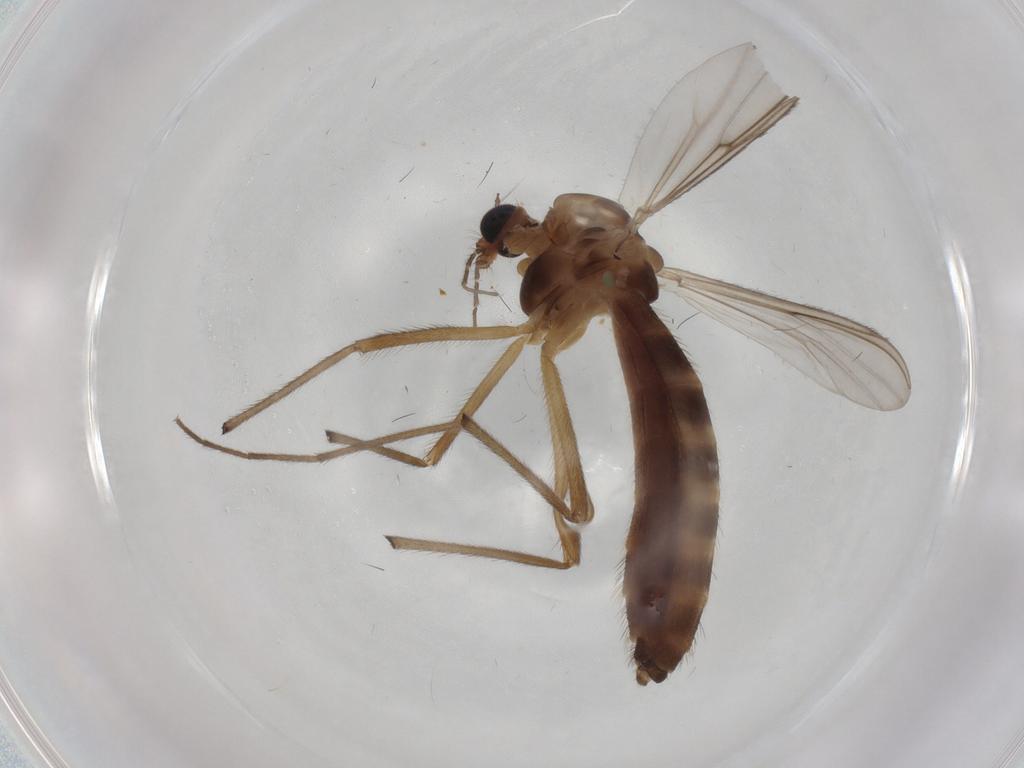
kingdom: Animalia
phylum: Arthropoda
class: Insecta
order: Diptera
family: Chironomidae
